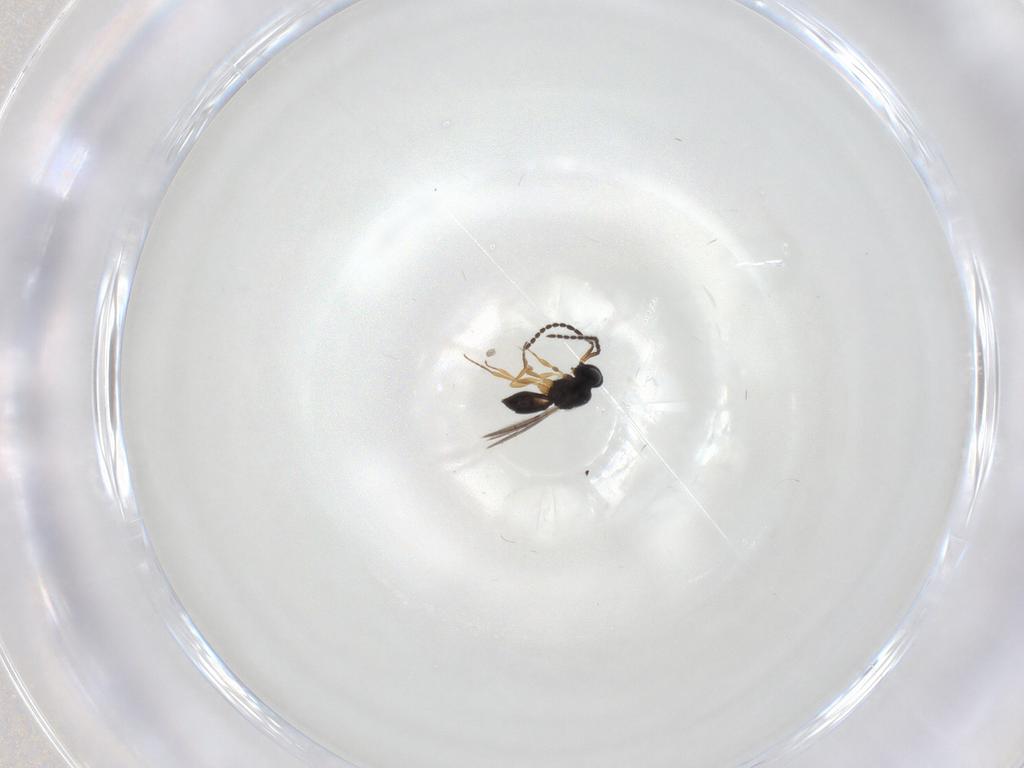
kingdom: Animalia
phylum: Arthropoda
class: Insecta
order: Hymenoptera
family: Scelionidae
